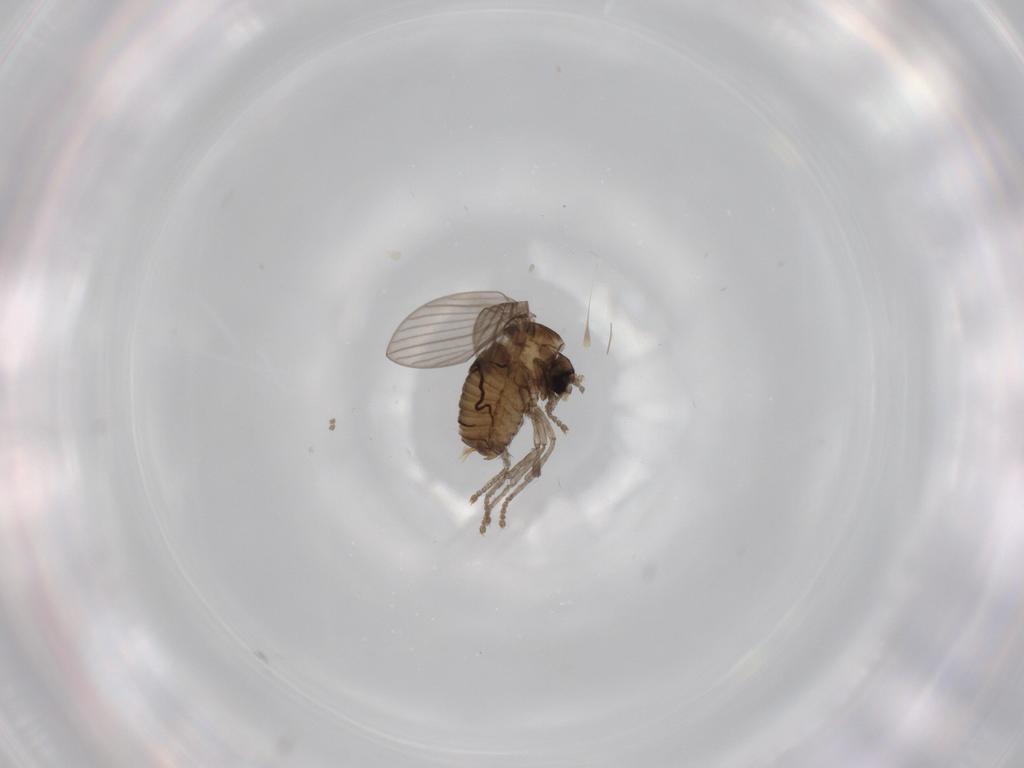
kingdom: Animalia
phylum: Arthropoda
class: Insecta
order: Diptera
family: Psychodidae
